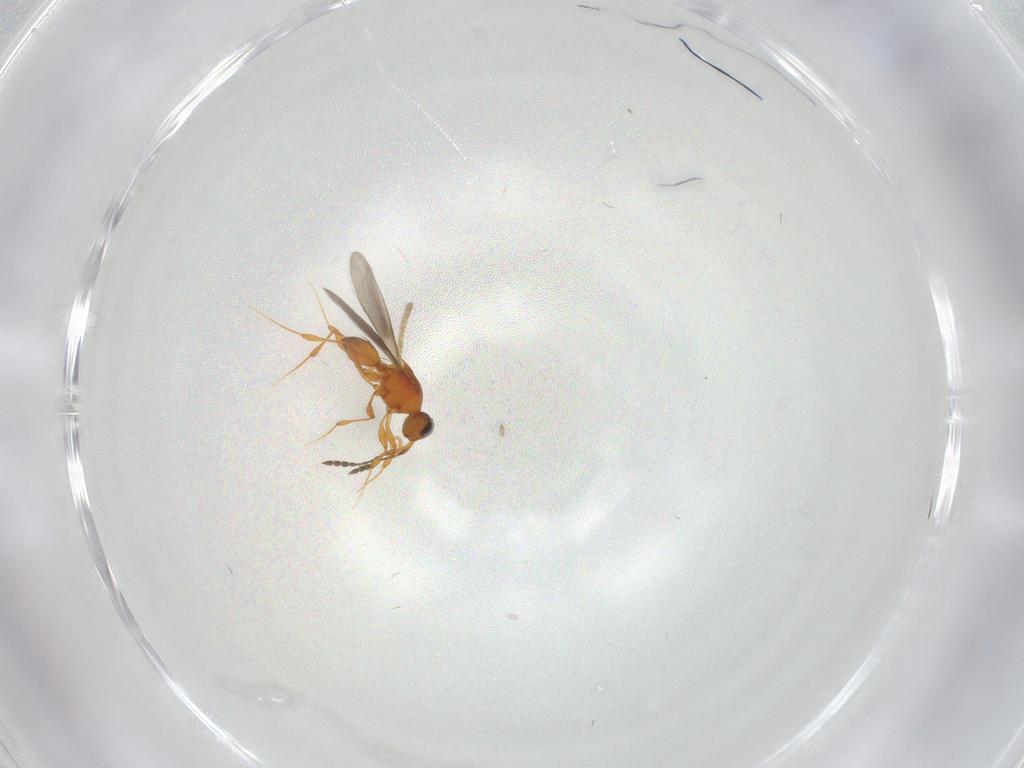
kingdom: Animalia
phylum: Arthropoda
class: Insecta
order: Hymenoptera
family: Platygastridae
